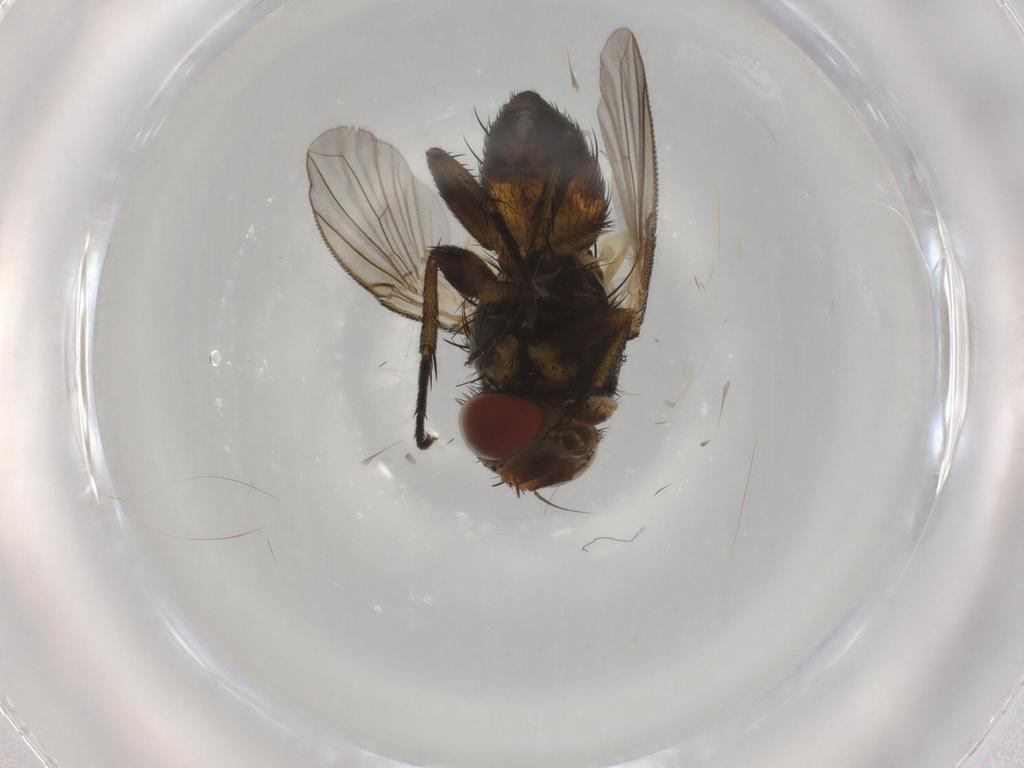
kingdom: Animalia
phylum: Arthropoda
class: Insecta
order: Diptera
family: Tachinidae
